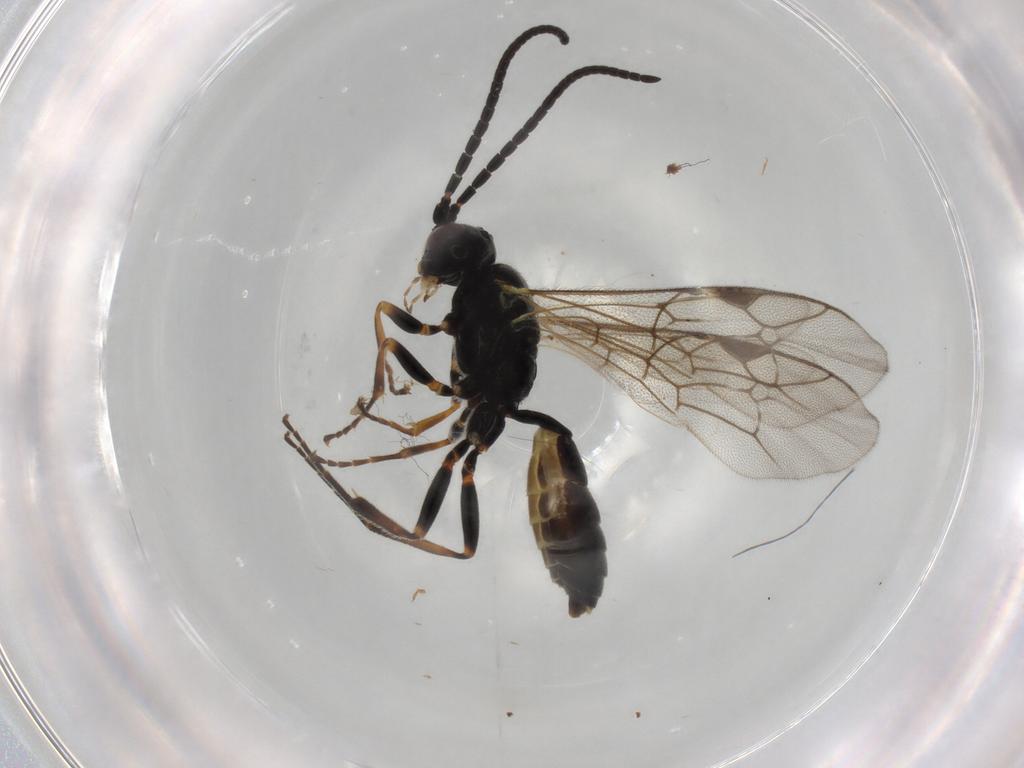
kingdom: Animalia
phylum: Arthropoda
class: Insecta
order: Hymenoptera
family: Ichneumonidae
